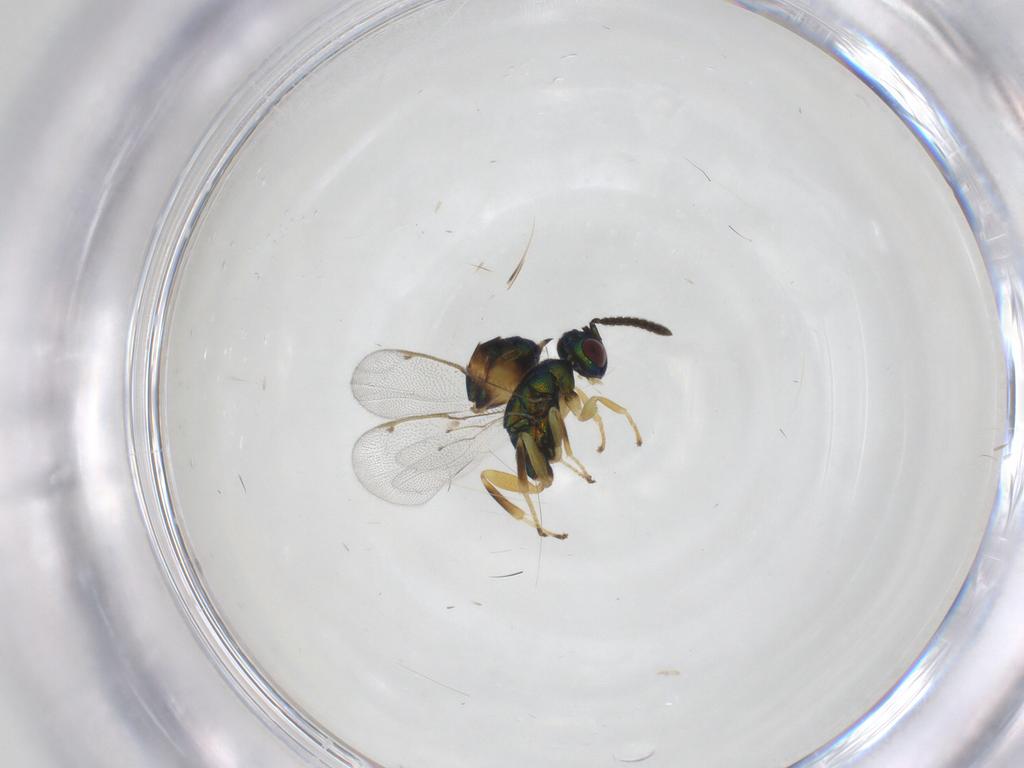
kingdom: Animalia
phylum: Arthropoda
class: Insecta
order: Hymenoptera
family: Torymidae
